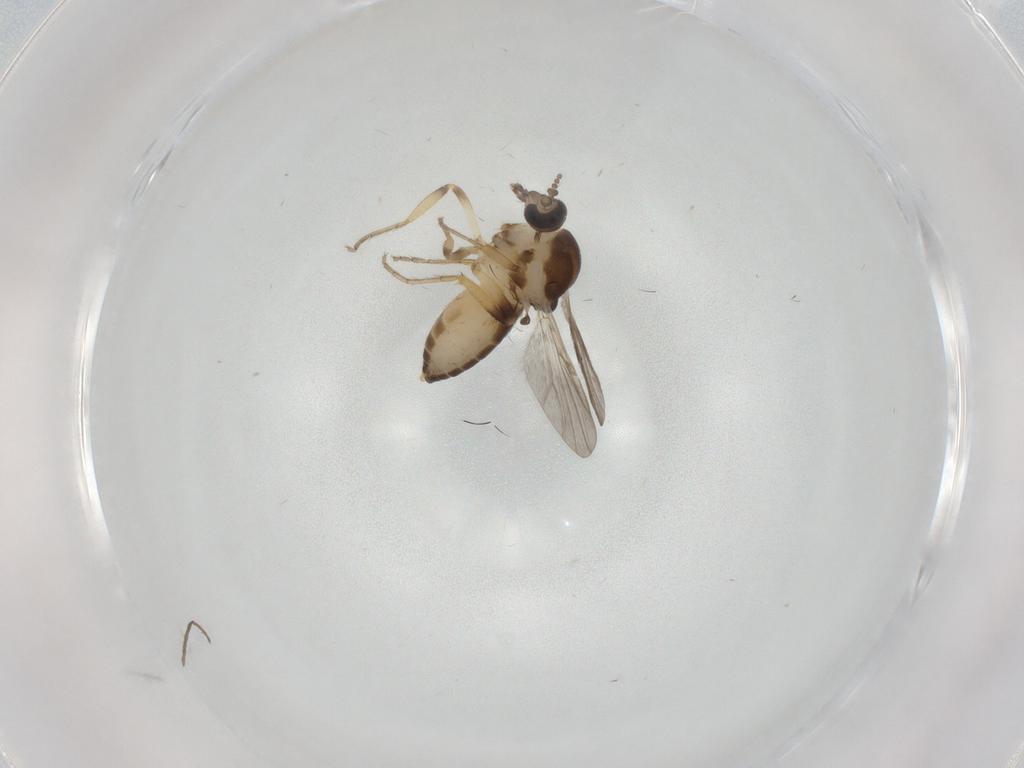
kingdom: Animalia
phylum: Arthropoda
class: Insecta
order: Diptera
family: Ceratopogonidae
